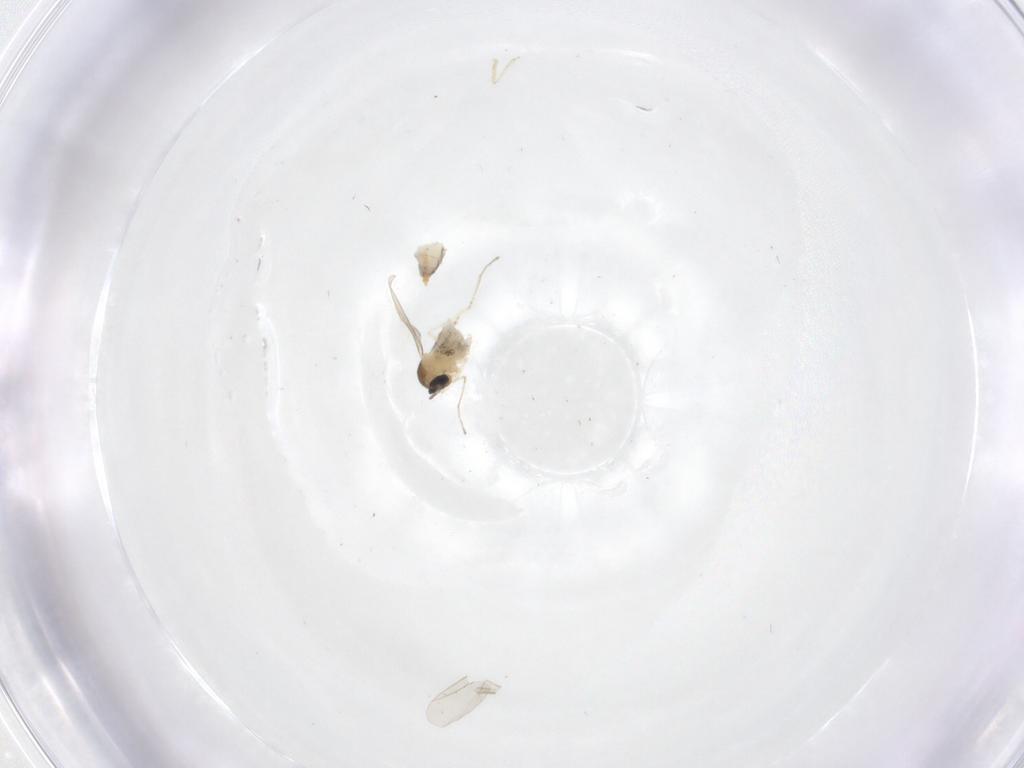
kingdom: Animalia
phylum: Arthropoda
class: Insecta
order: Diptera
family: Cecidomyiidae
